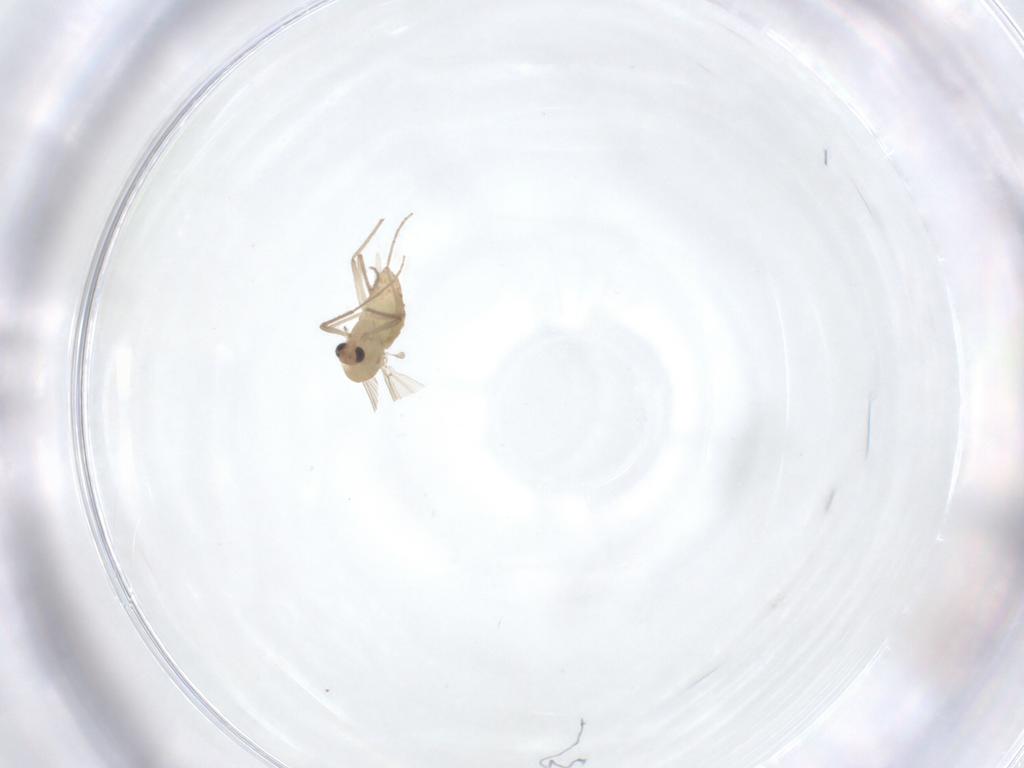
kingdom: Animalia
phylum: Arthropoda
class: Insecta
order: Diptera
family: Chironomidae
